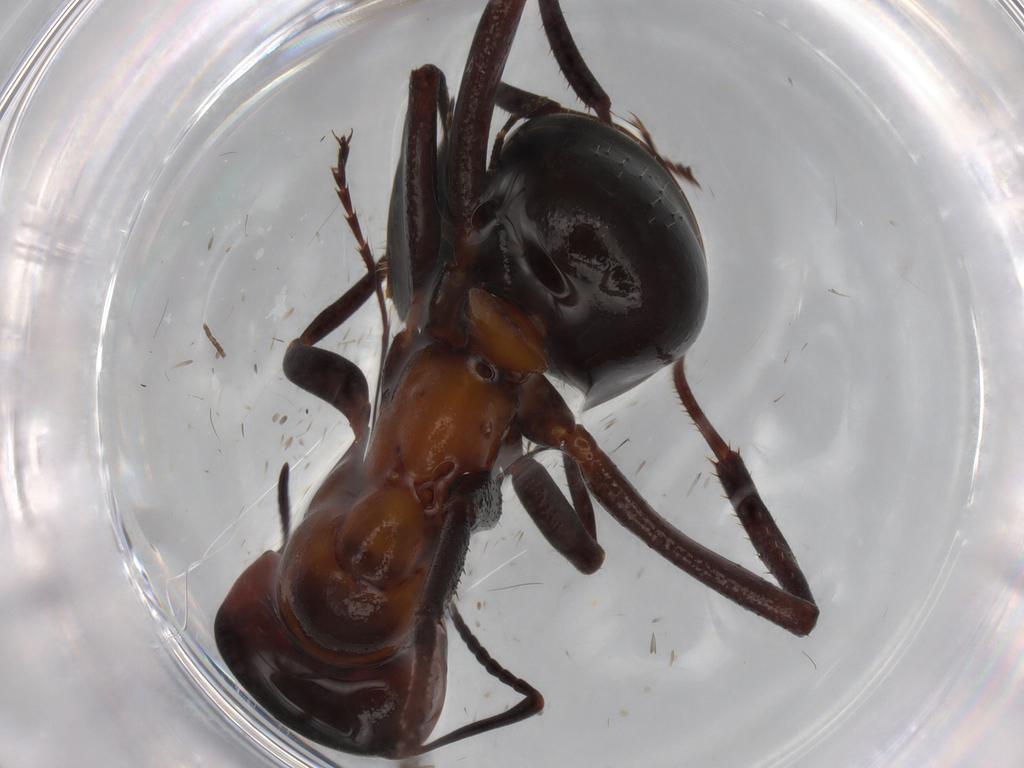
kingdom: Animalia
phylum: Arthropoda
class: Insecta
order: Hymenoptera
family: Formicidae
